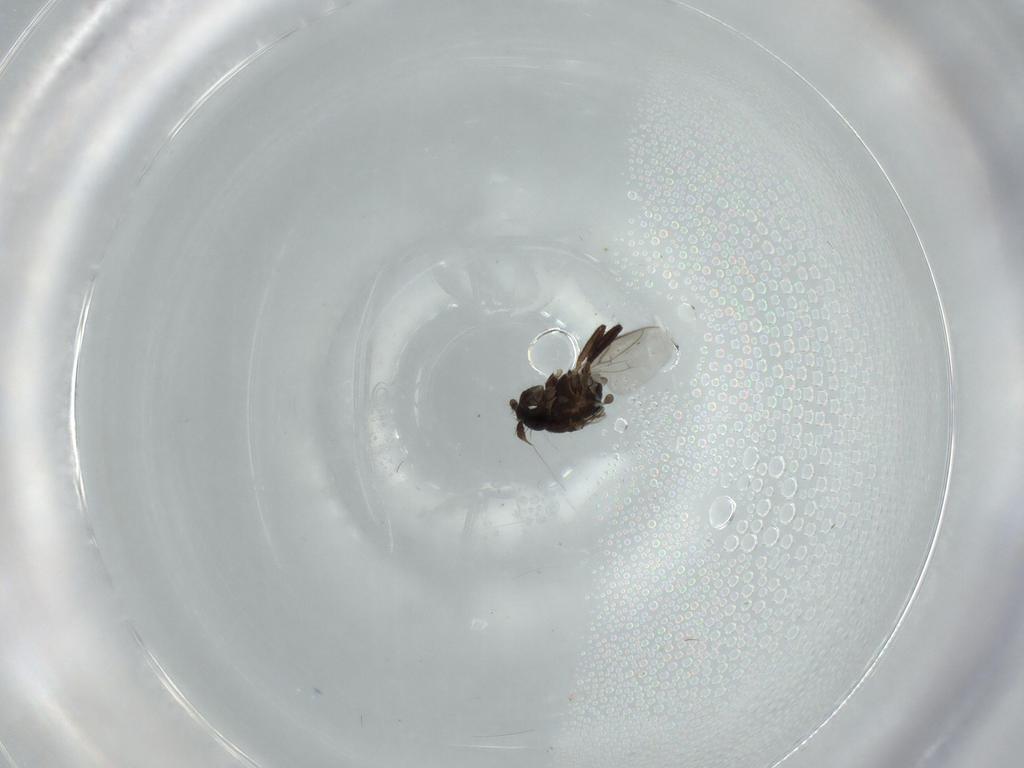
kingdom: Animalia
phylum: Arthropoda
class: Insecta
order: Diptera
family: Sphaeroceridae
